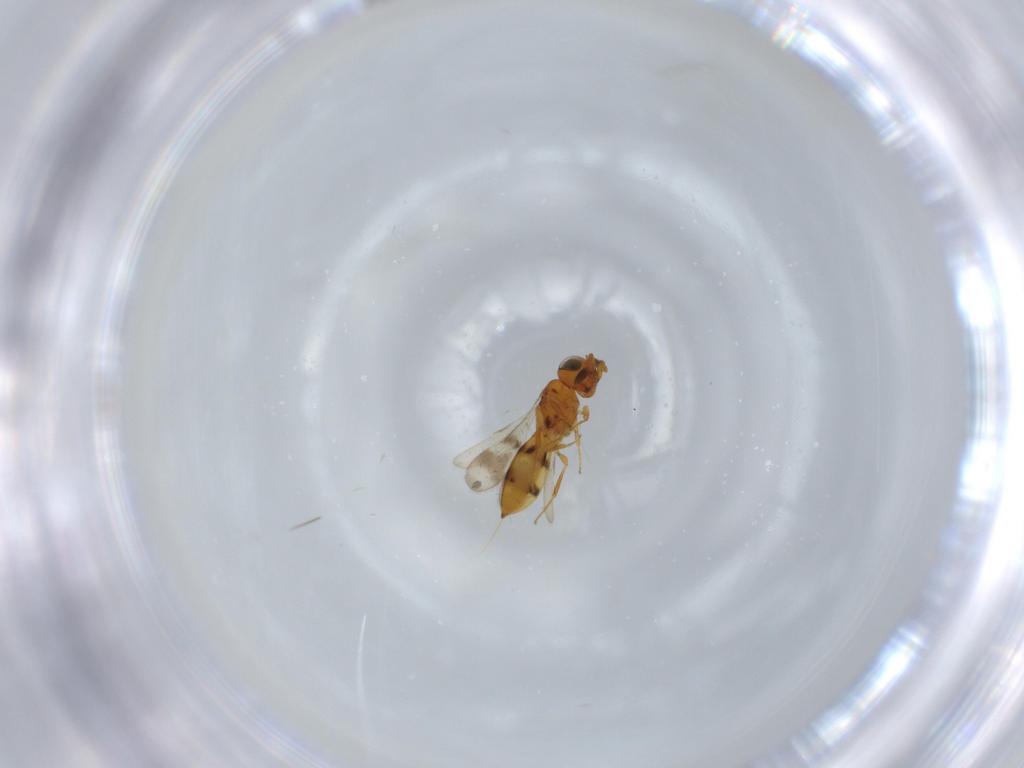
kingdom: Animalia
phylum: Arthropoda
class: Insecta
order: Hymenoptera
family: Scelionidae
